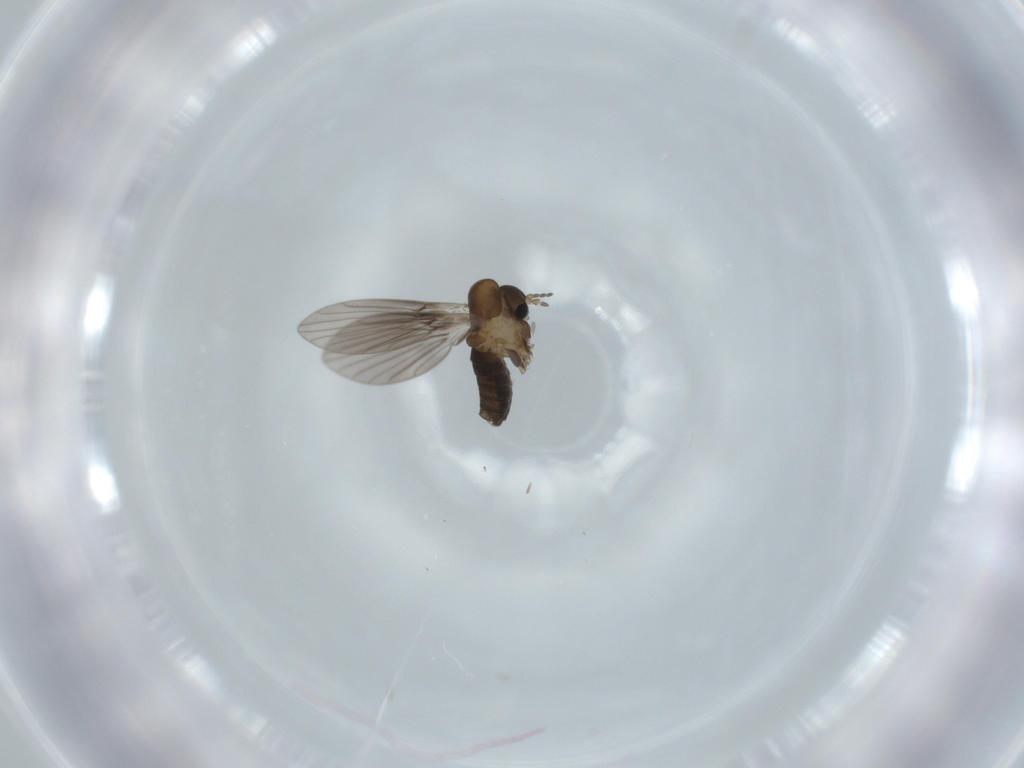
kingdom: Animalia
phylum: Arthropoda
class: Insecta
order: Diptera
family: Psychodidae
